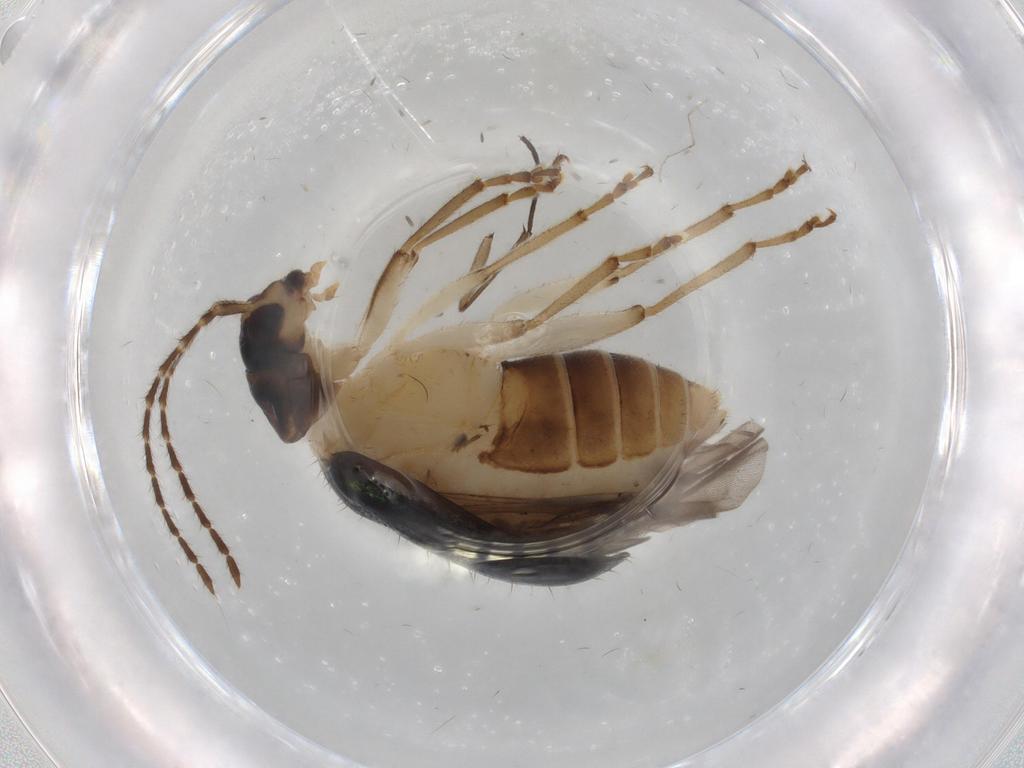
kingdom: Animalia
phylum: Arthropoda
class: Insecta
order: Coleoptera
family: Chrysomelidae
